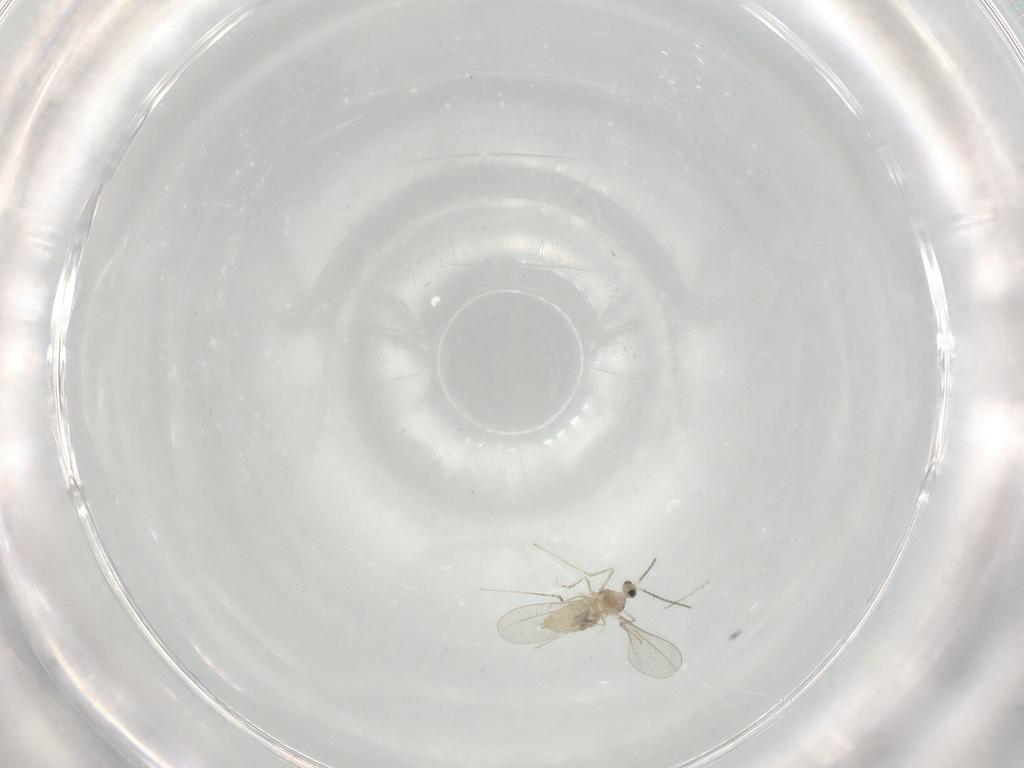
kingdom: Animalia
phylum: Arthropoda
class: Insecta
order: Diptera
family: Cecidomyiidae
